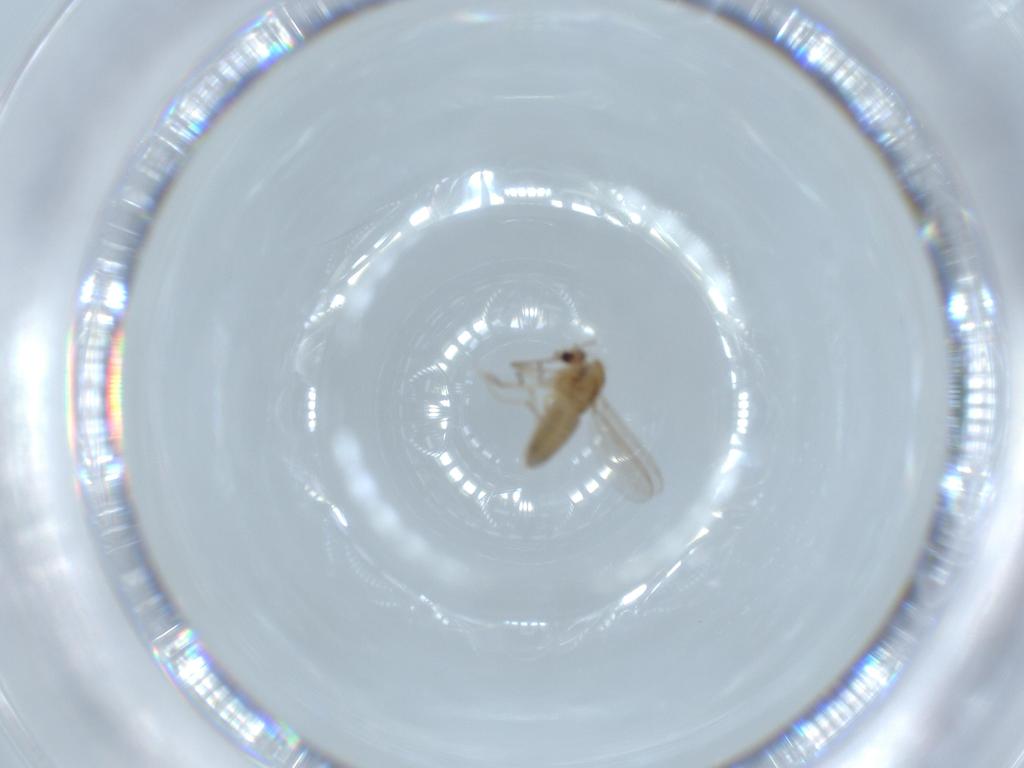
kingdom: Animalia
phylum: Arthropoda
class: Insecta
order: Diptera
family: Chironomidae
